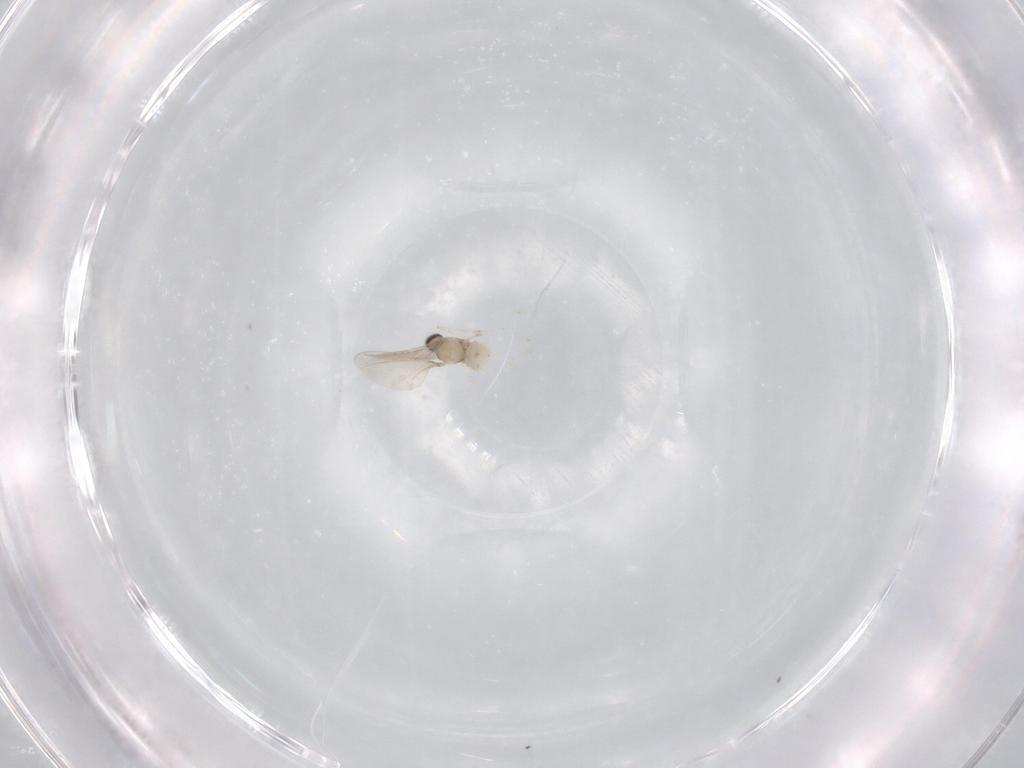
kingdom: Animalia
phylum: Arthropoda
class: Insecta
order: Diptera
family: Cecidomyiidae
